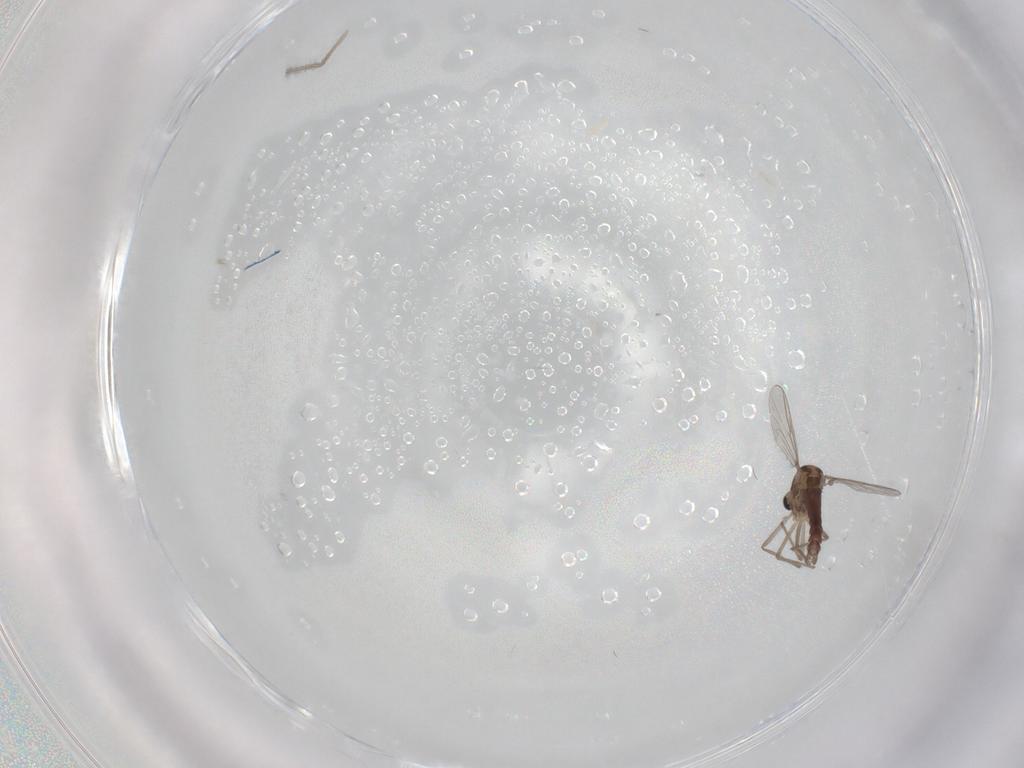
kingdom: Animalia
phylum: Arthropoda
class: Insecta
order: Diptera
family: Chironomidae
